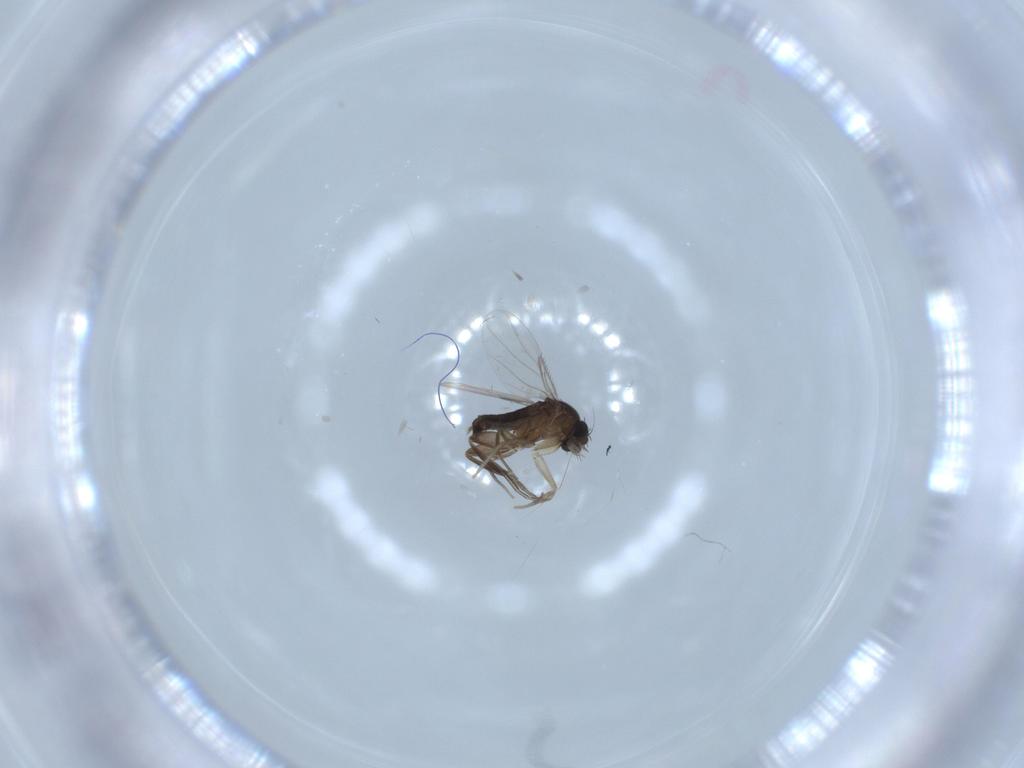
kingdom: Animalia
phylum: Arthropoda
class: Insecta
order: Diptera
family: Phoridae
